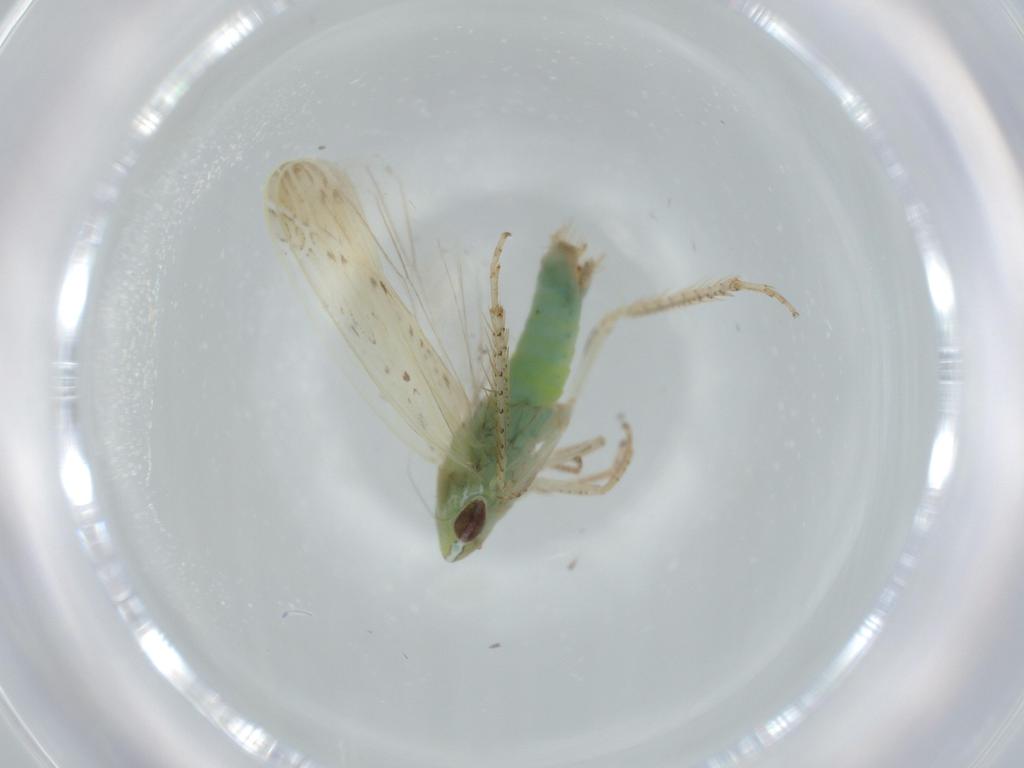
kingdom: Animalia
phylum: Arthropoda
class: Insecta
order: Hemiptera
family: Cicadellidae
